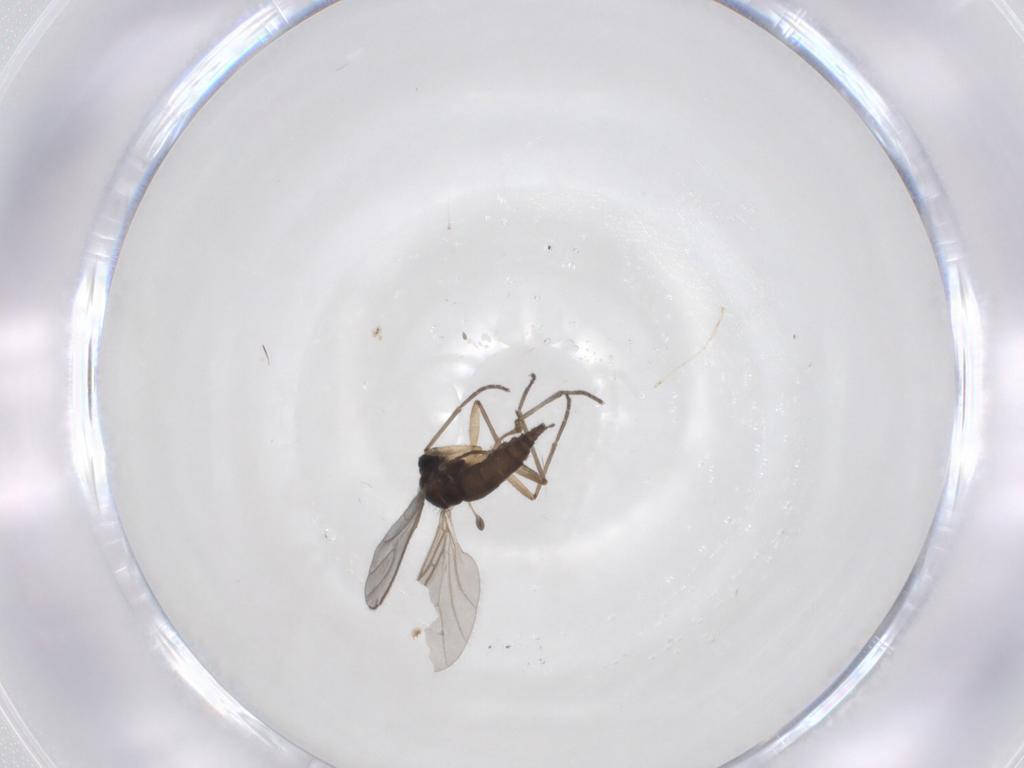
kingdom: Animalia
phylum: Arthropoda
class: Insecta
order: Diptera
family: Sciaridae
